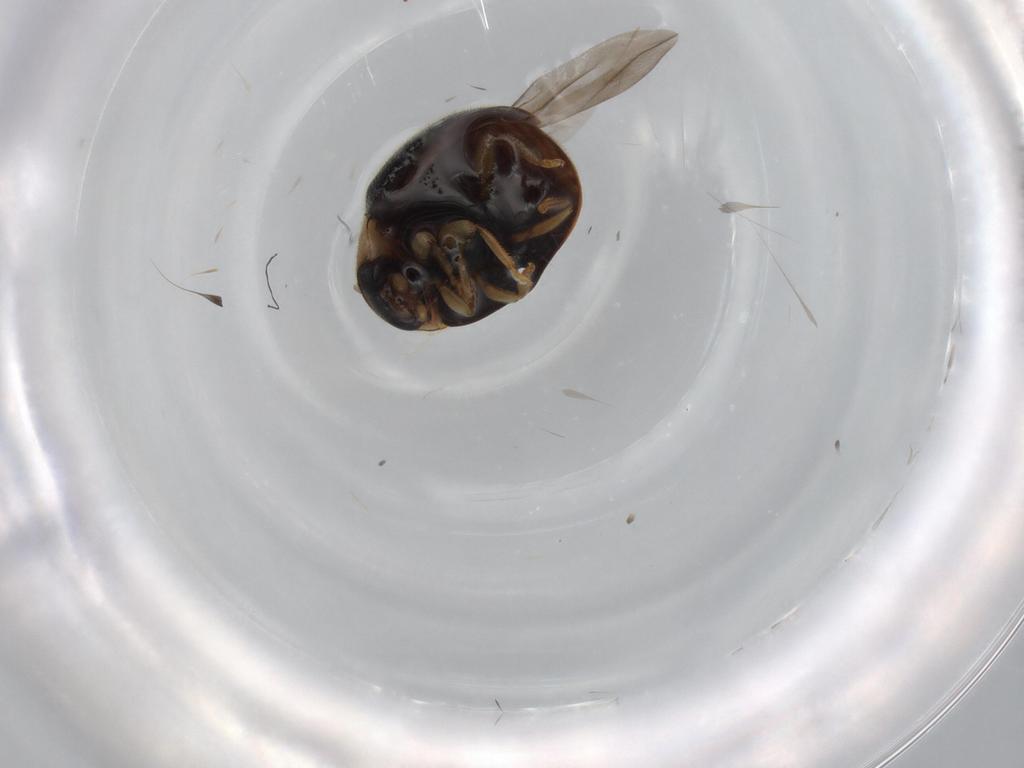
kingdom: Animalia
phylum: Arthropoda
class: Insecta
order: Coleoptera
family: Coccinellidae
